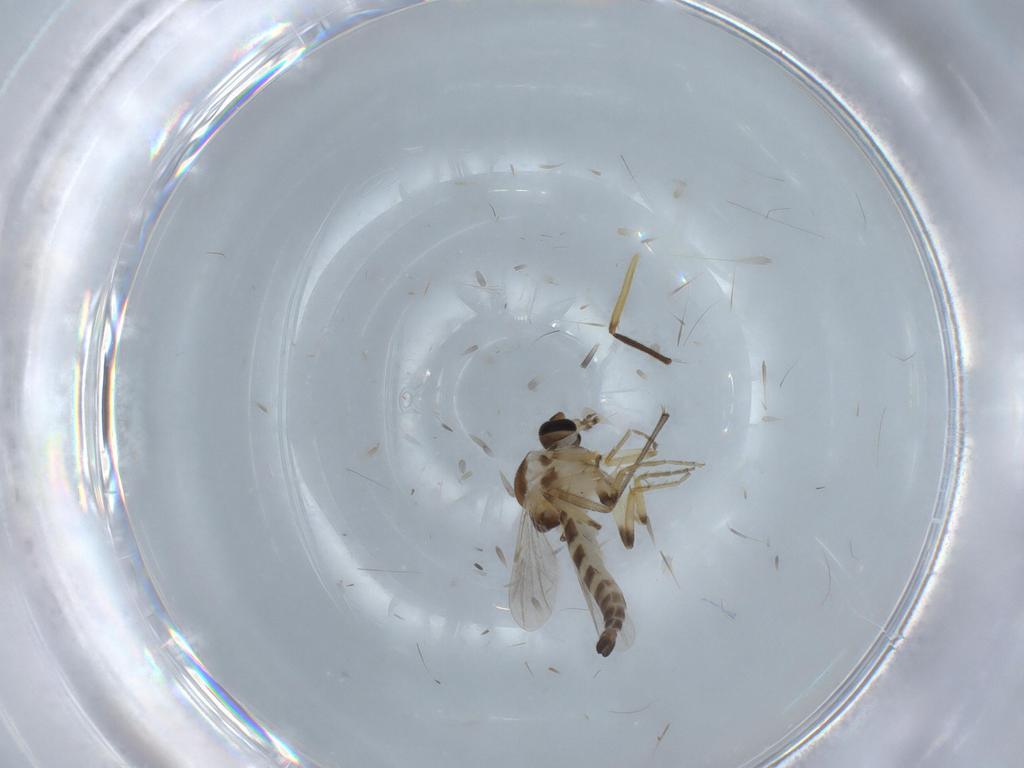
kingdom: Animalia
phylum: Arthropoda
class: Insecta
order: Diptera
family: Ceratopogonidae
